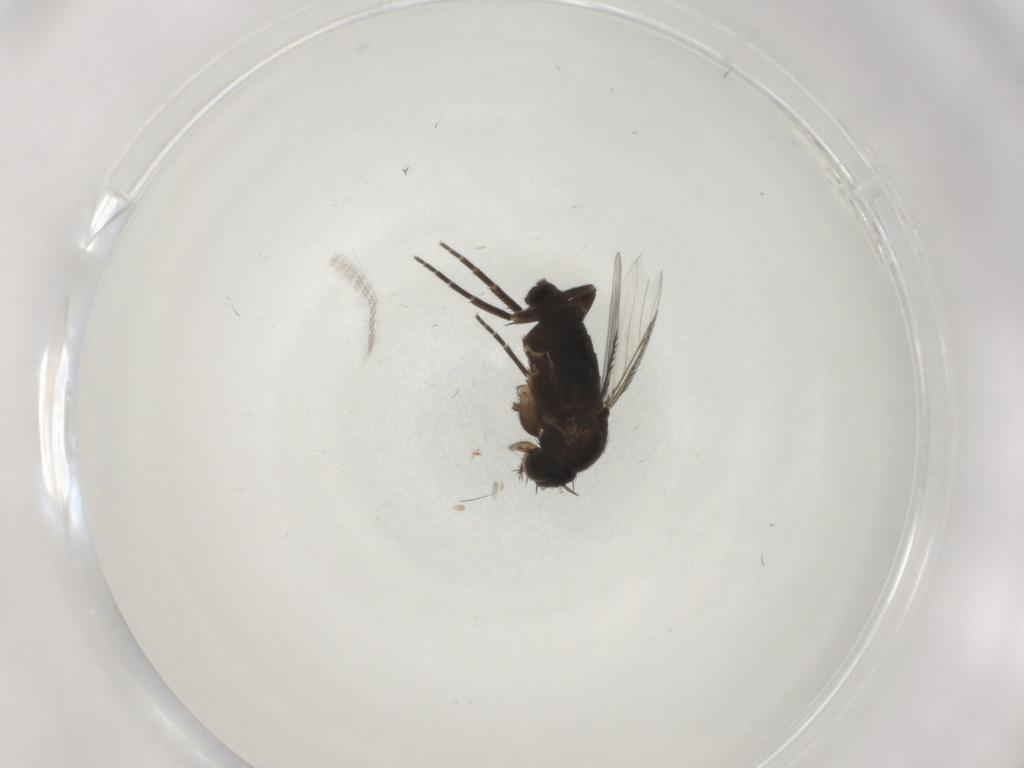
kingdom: Animalia
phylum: Arthropoda
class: Insecta
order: Diptera
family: Phoridae
